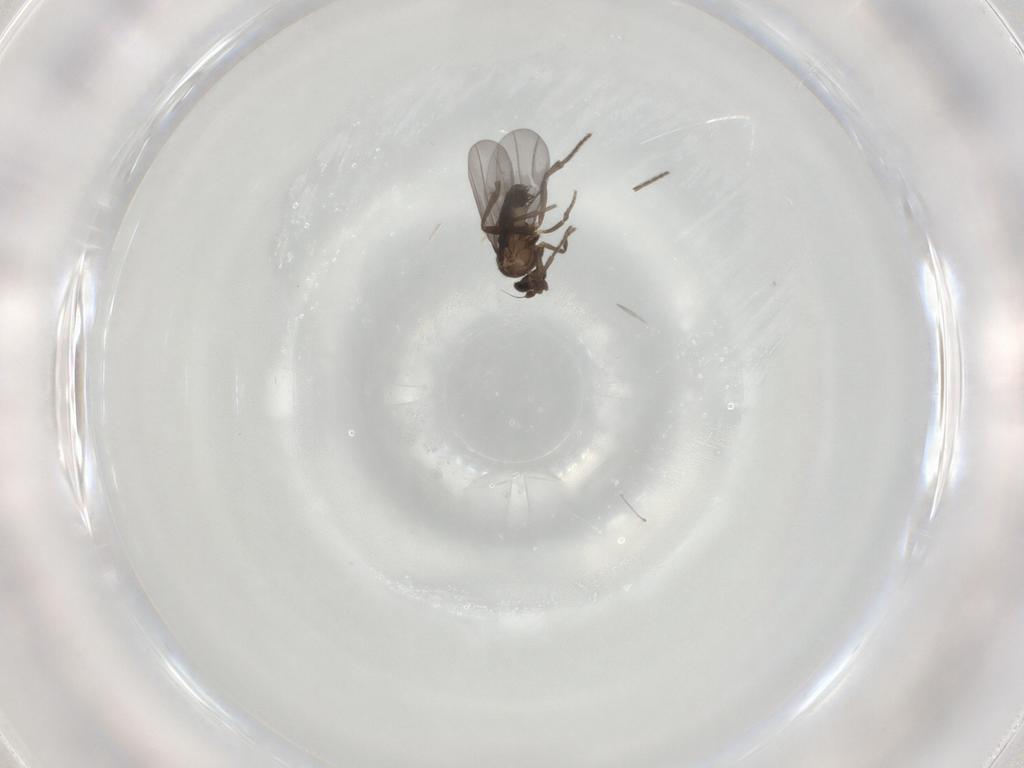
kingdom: Animalia
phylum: Arthropoda
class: Insecta
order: Diptera
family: Phoridae
